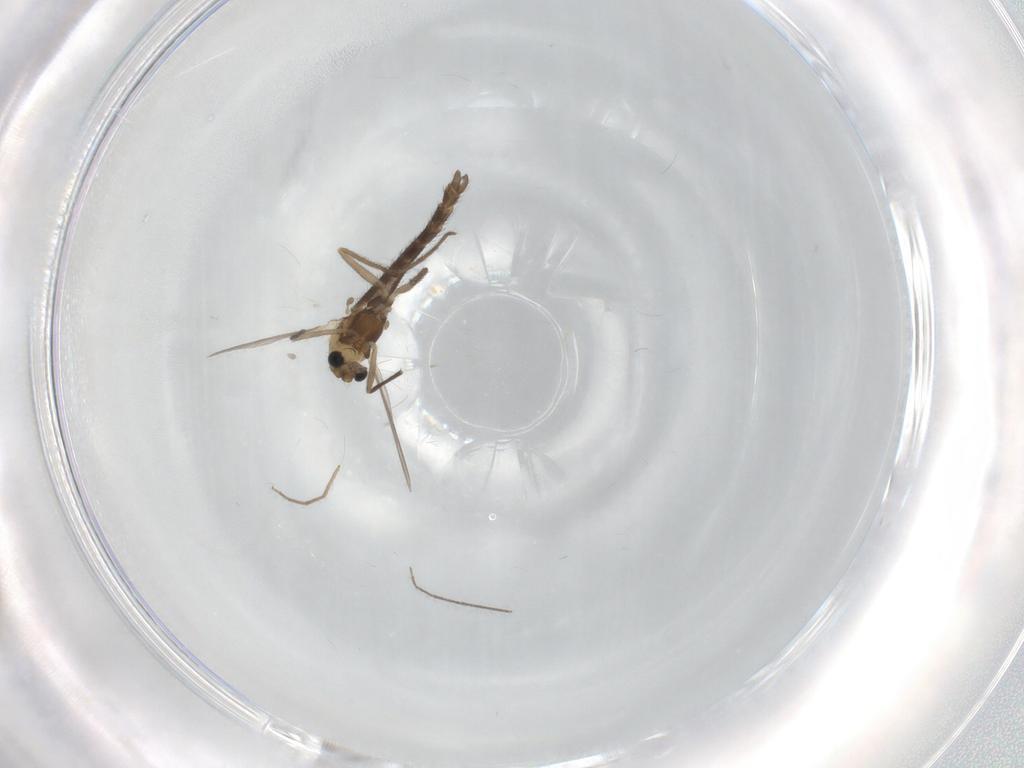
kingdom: Animalia
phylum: Arthropoda
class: Insecta
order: Diptera
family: Chironomidae
